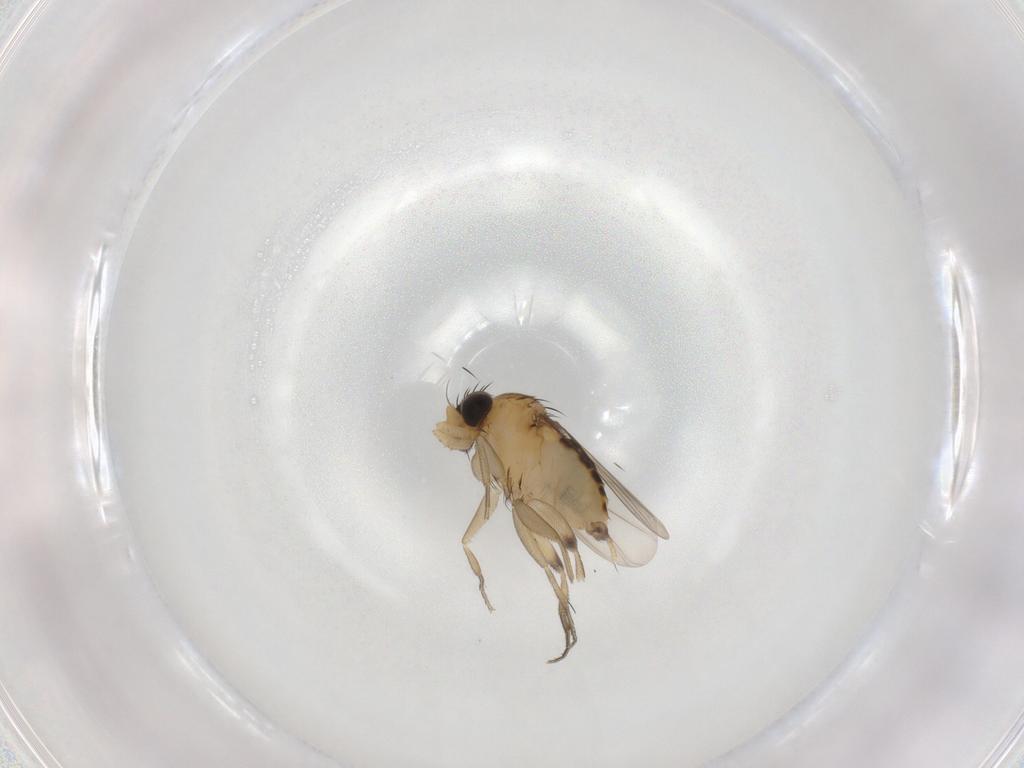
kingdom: Animalia
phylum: Arthropoda
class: Insecta
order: Diptera
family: Phoridae
